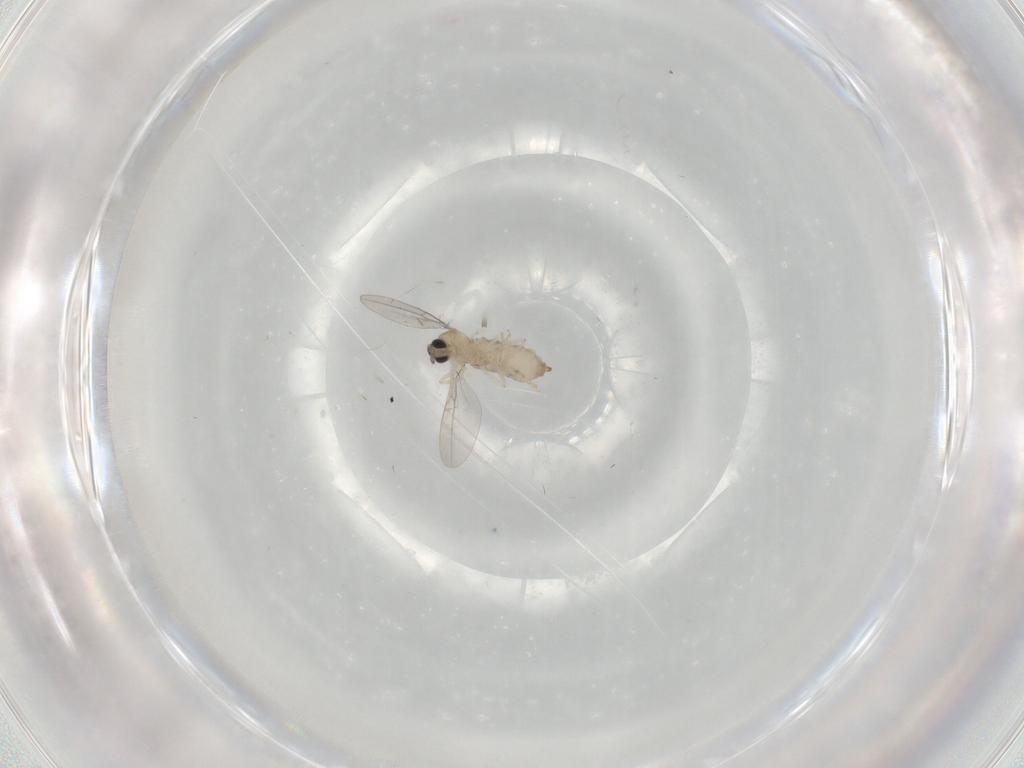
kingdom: Animalia
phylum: Arthropoda
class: Insecta
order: Diptera
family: Cecidomyiidae
